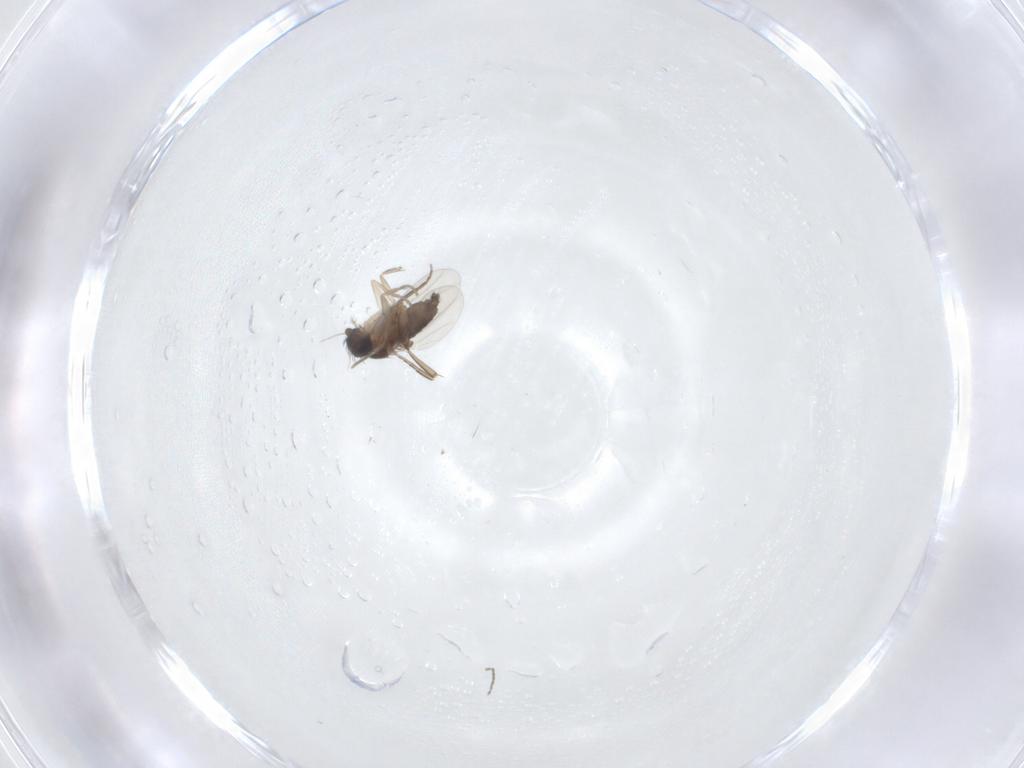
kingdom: Animalia
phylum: Arthropoda
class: Insecta
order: Diptera
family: Phoridae
